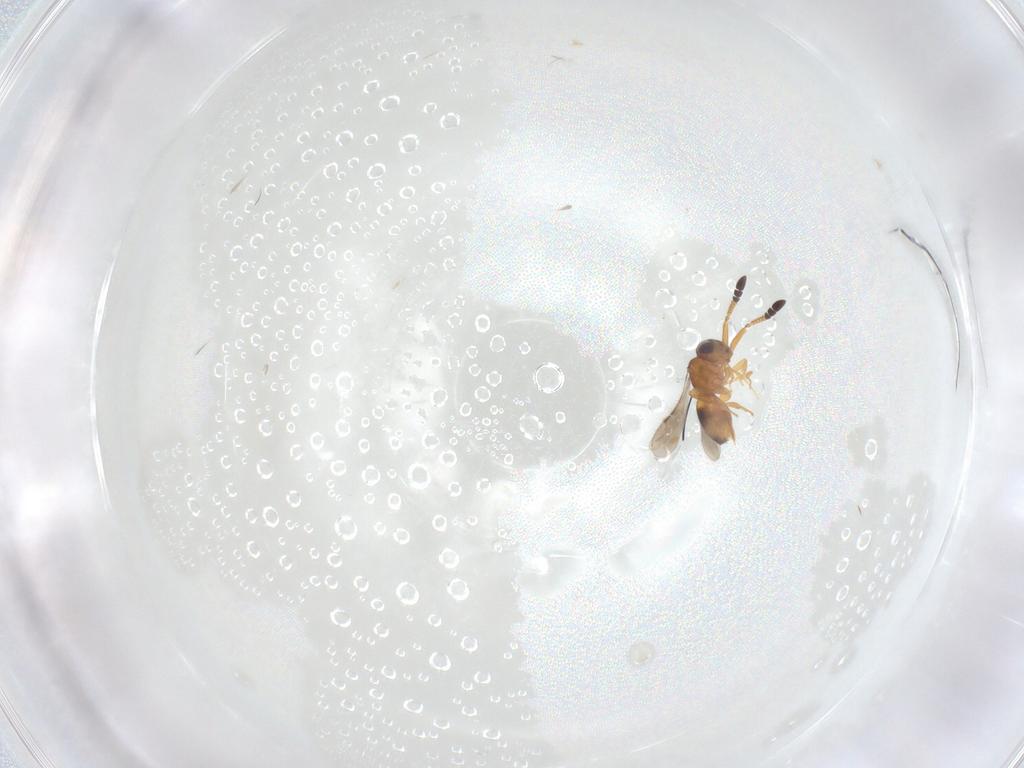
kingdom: Animalia
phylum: Arthropoda
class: Insecta
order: Hymenoptera
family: Braconidae
